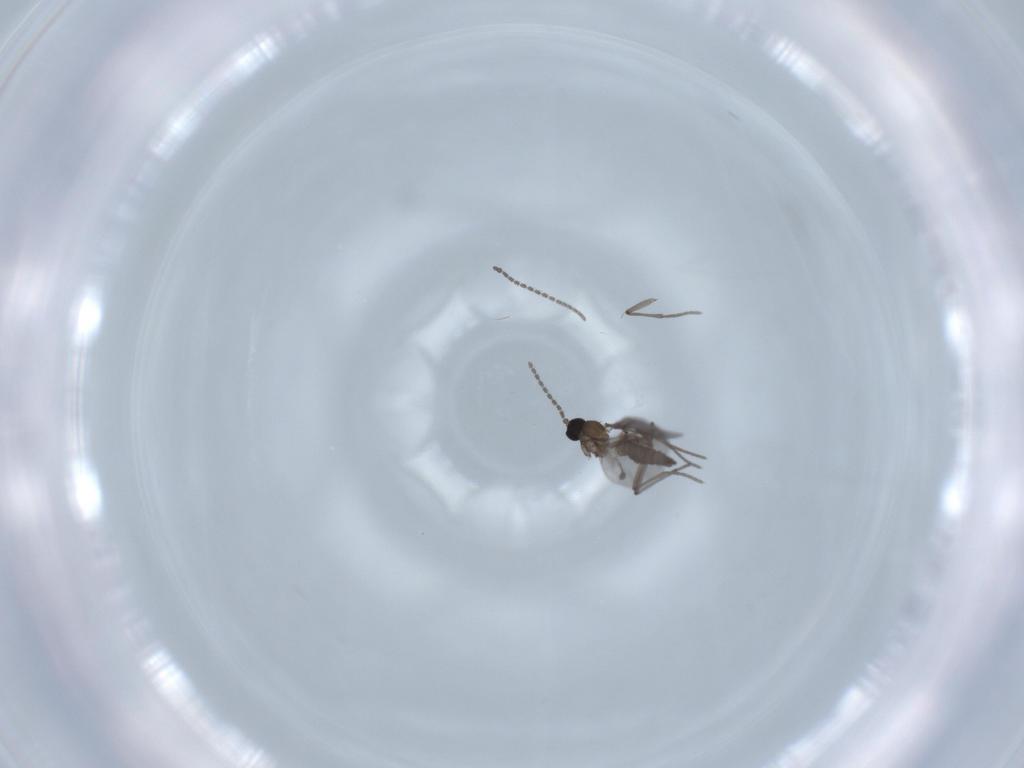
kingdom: Animalia
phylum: Arthropoda
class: Insecta
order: Diptera
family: Sciaridae
